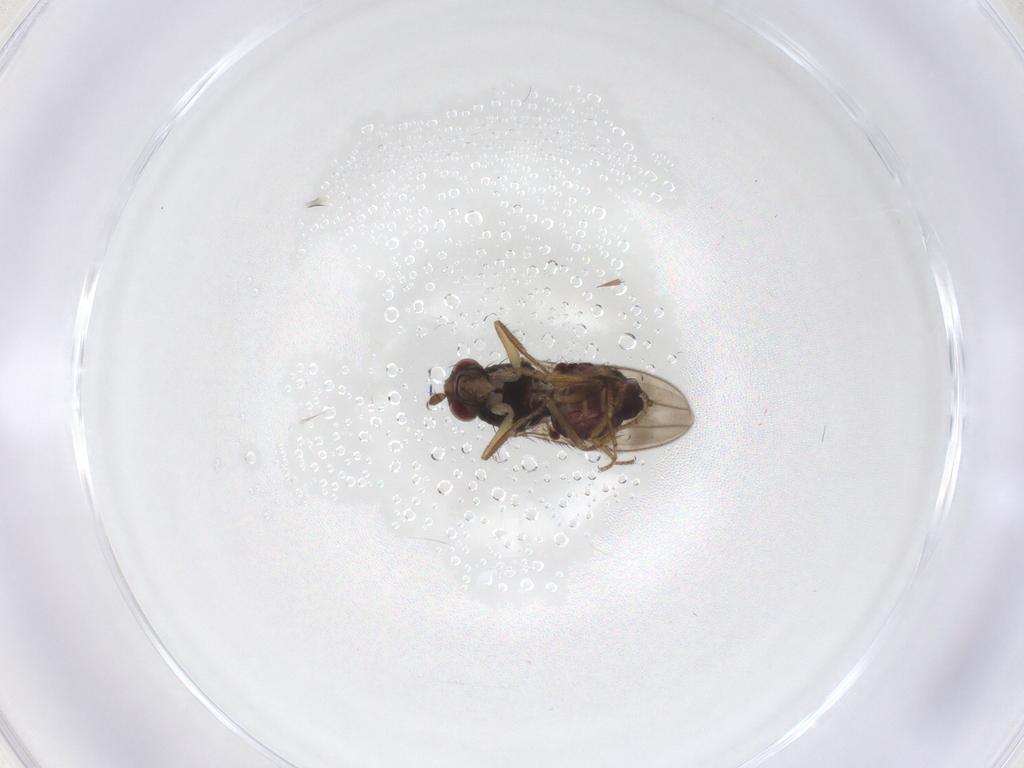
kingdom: Animalia
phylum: Arthropoda
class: Insecta
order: Diptera
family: Sphaeroceridae
